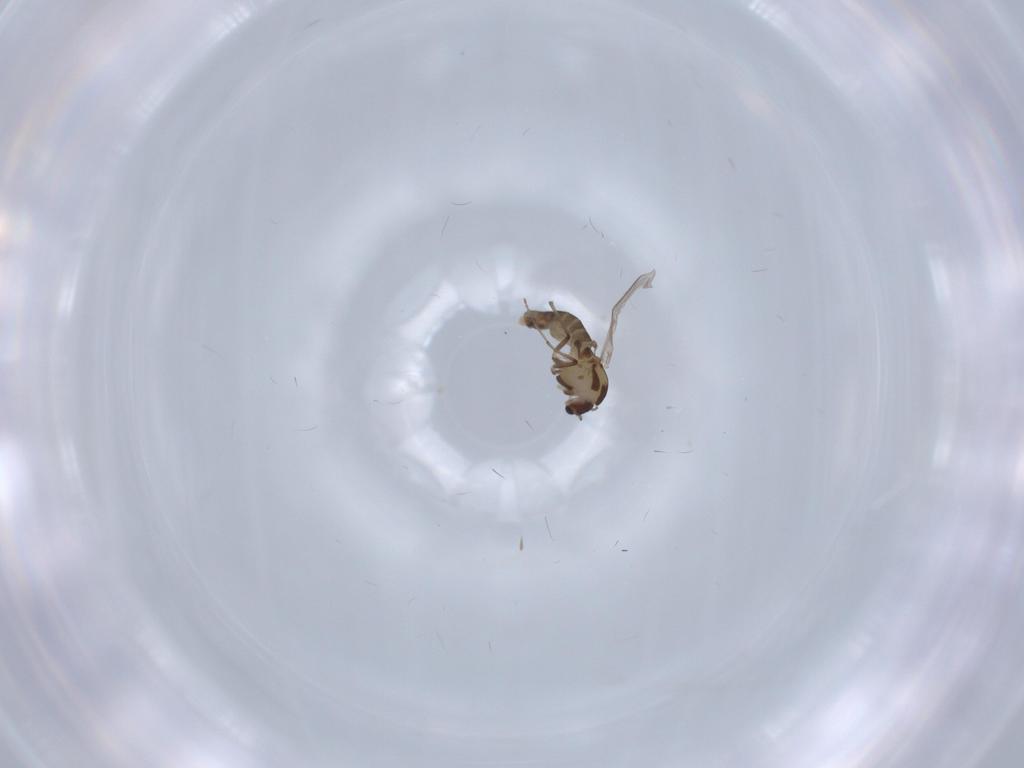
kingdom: Animalia
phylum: Arthropoda
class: Insecta
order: Diptera
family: Chironomidae
